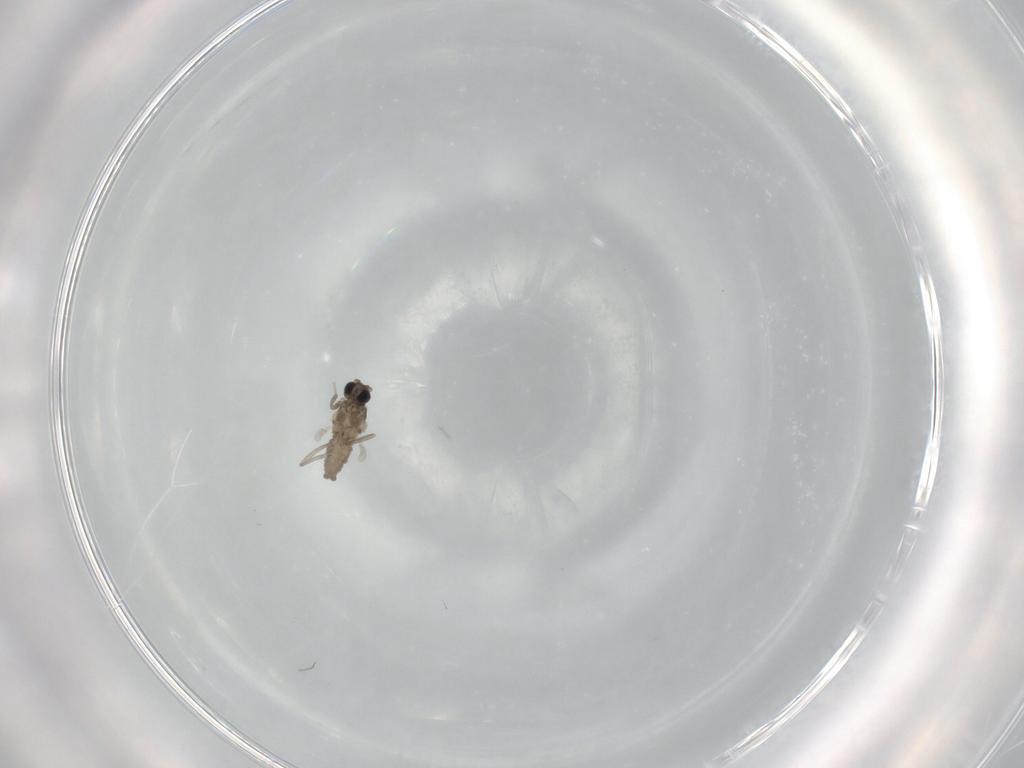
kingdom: Animalia
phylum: Arthropoda
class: Insecta
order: Diptera
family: Cecidomyiidae
